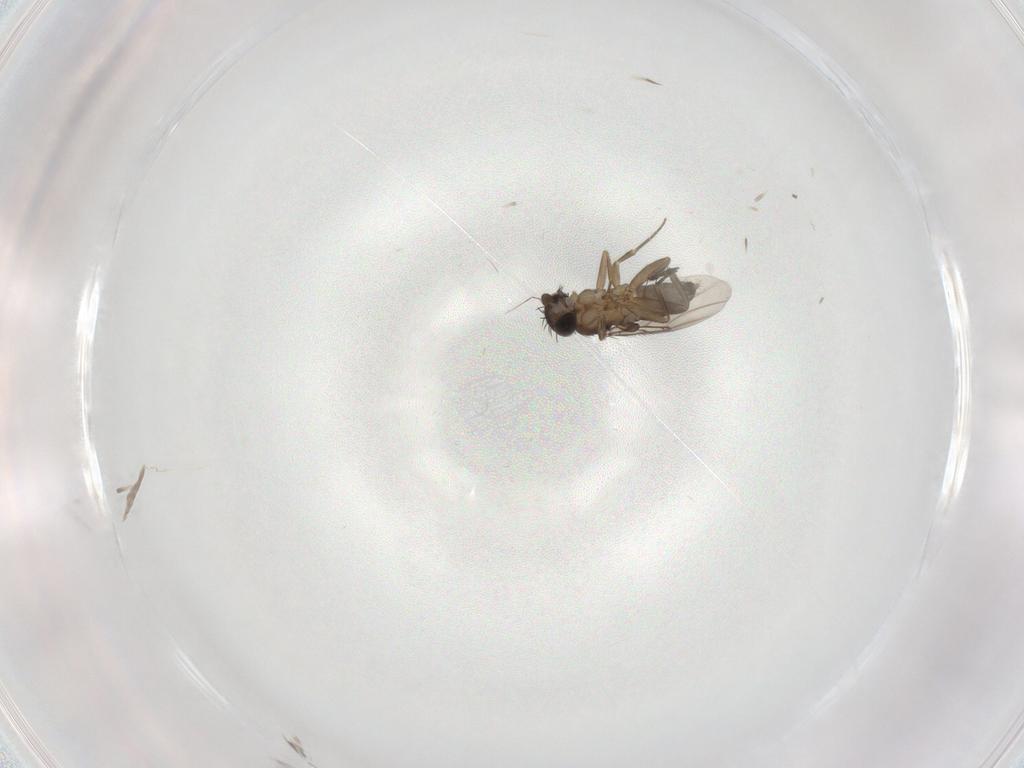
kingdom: Animalia
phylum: Arthropoda
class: Insecta
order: Diptera
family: Phoridae
